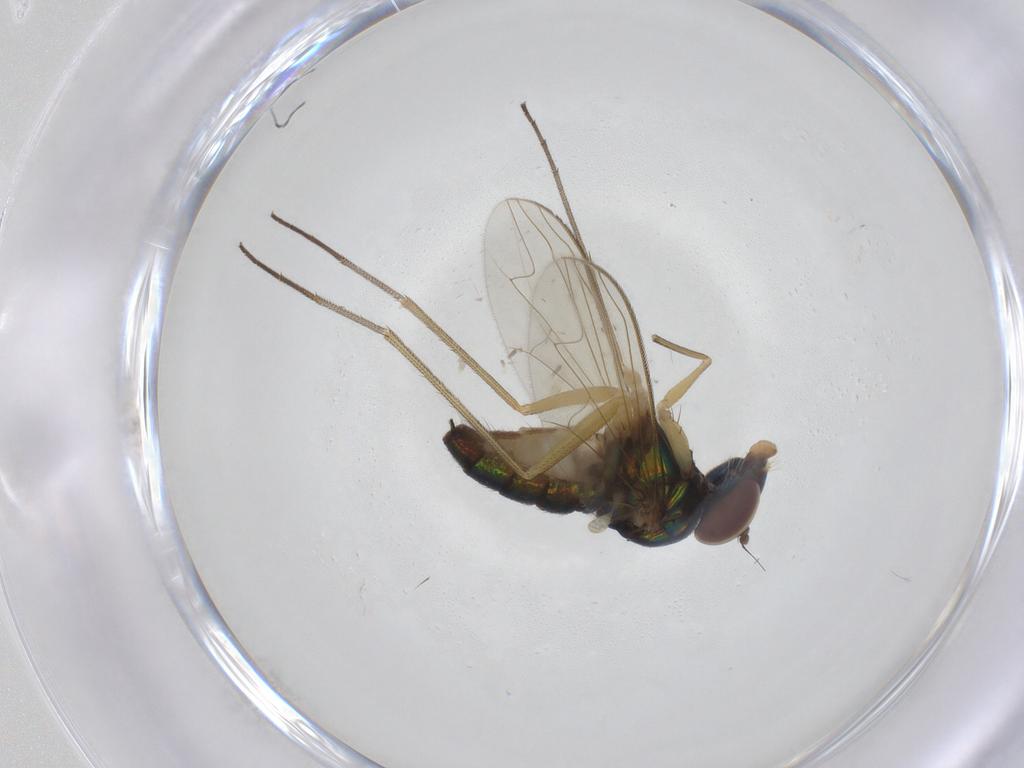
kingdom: Animalia
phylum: Arthropoda
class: Insecta
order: Diptera
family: Dolichopodidae
